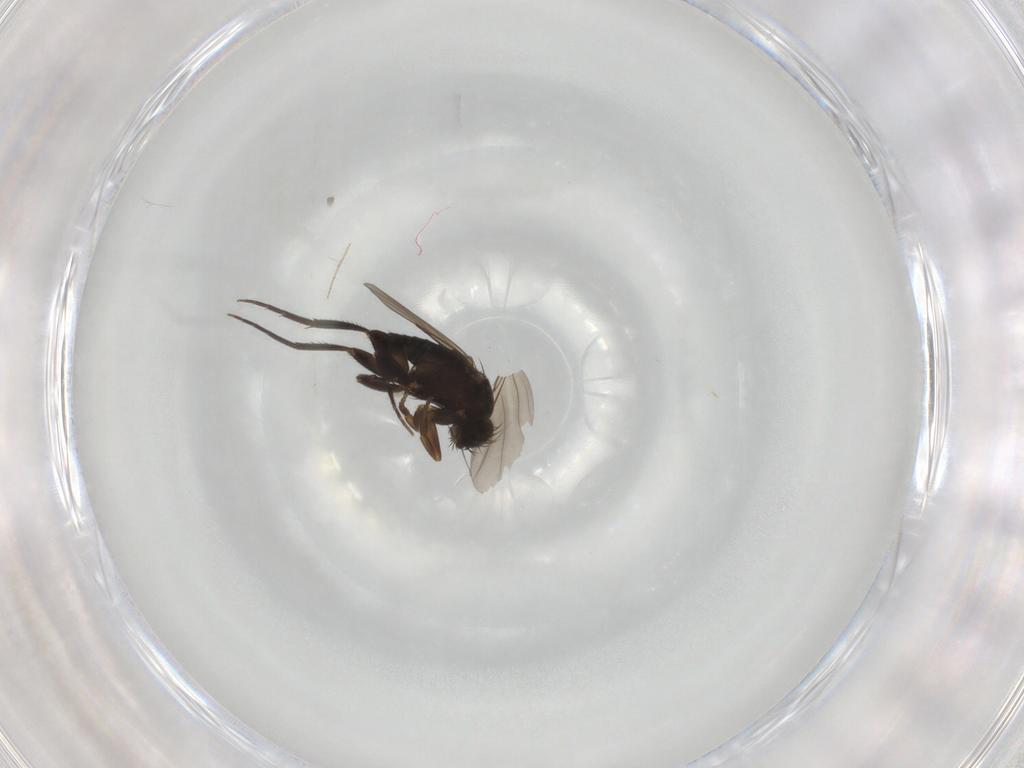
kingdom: Animalia
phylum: Arthropoda
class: Insecta
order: Diptera
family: Phoridae
